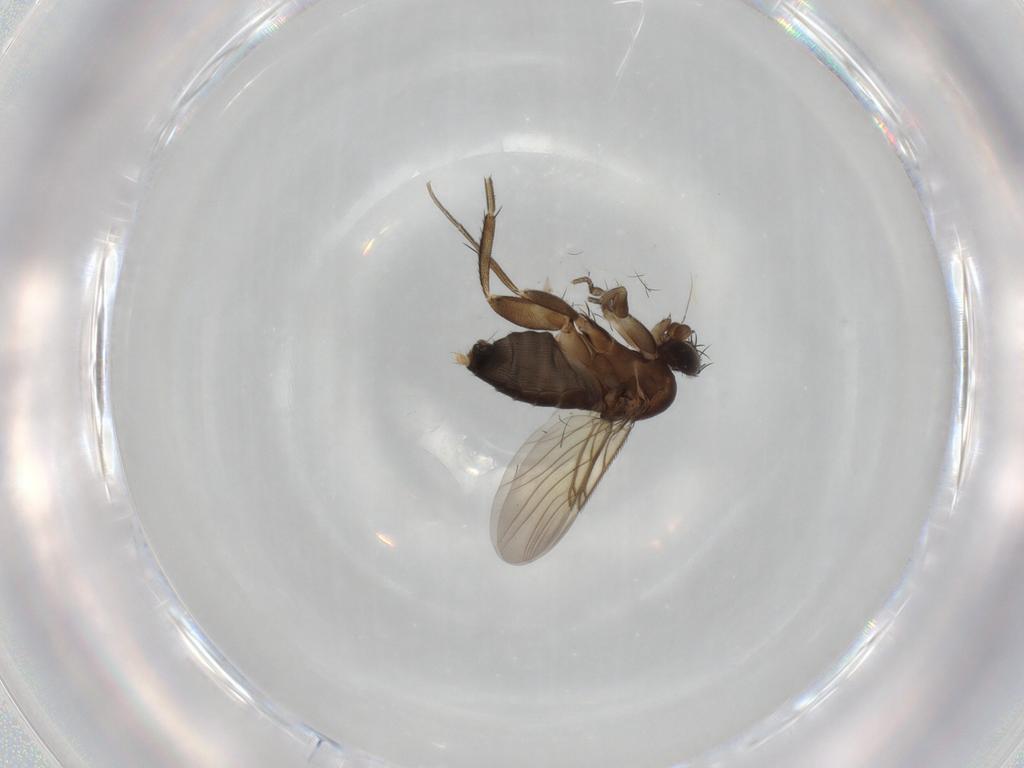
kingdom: Animalia
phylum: Arthropoda
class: Insecta
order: Diptera
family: Phoridae
